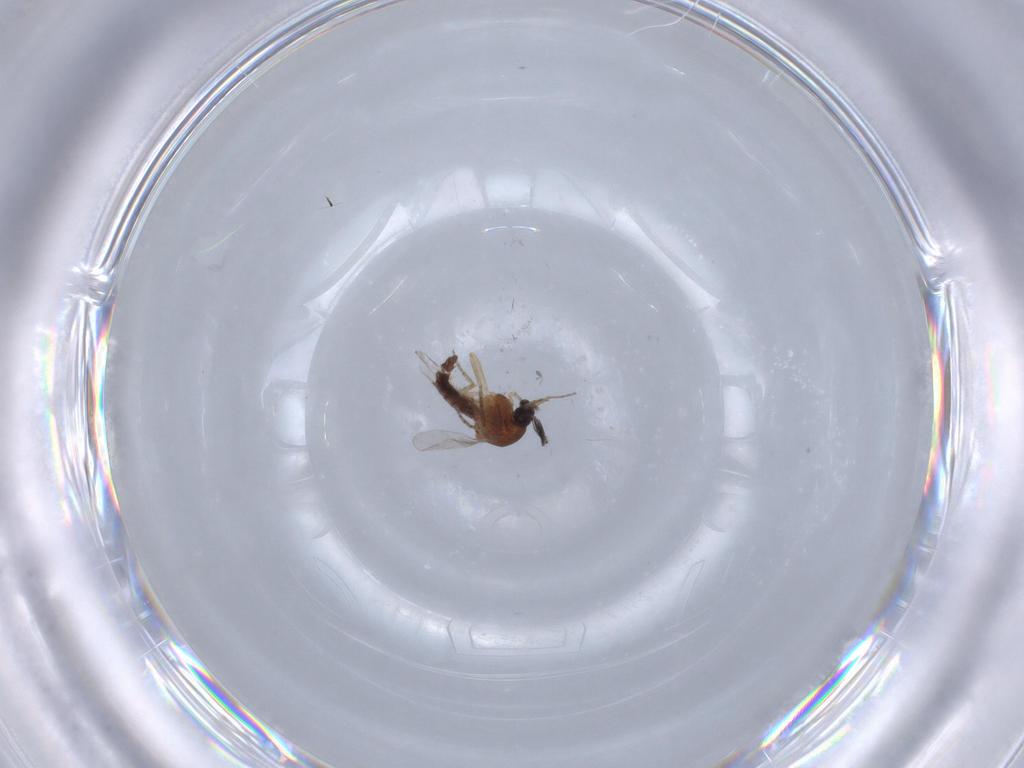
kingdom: Animalia
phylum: Arthropoda
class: Insecta
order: Diptera
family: Ceratopogonidae
